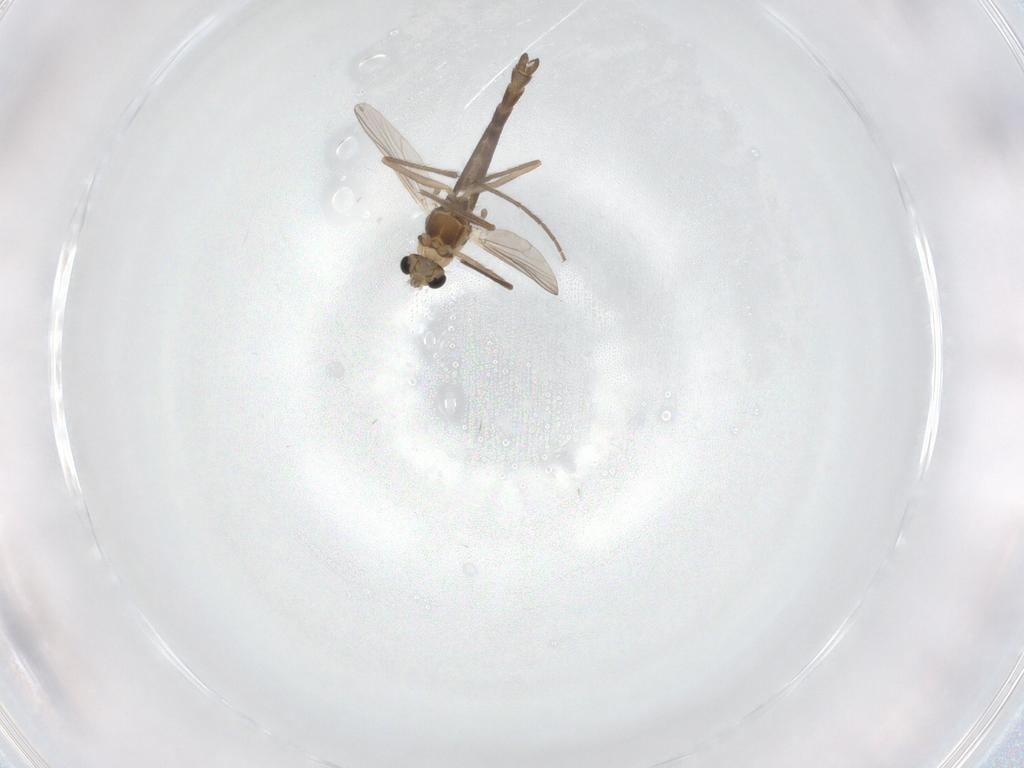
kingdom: Animalia
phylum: Arthropoda
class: Insecta
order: Diptera
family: Chironomidae
